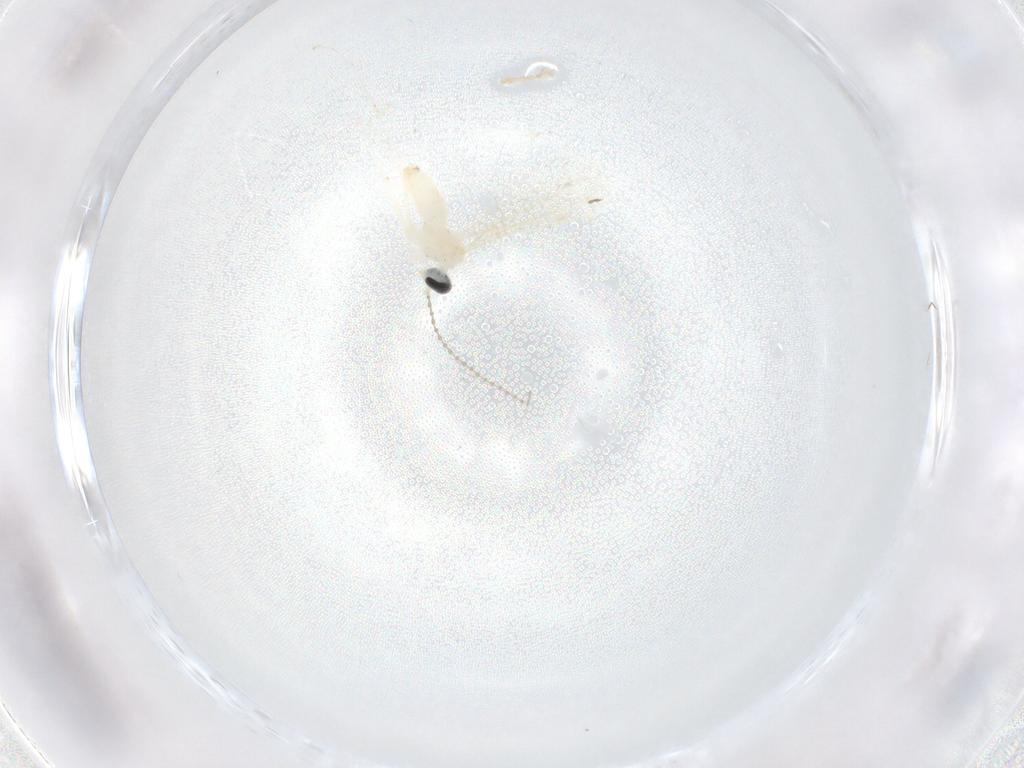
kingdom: Animalia
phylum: Arthropoda
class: Insecta
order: Diptera
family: Cecidomyiidae
